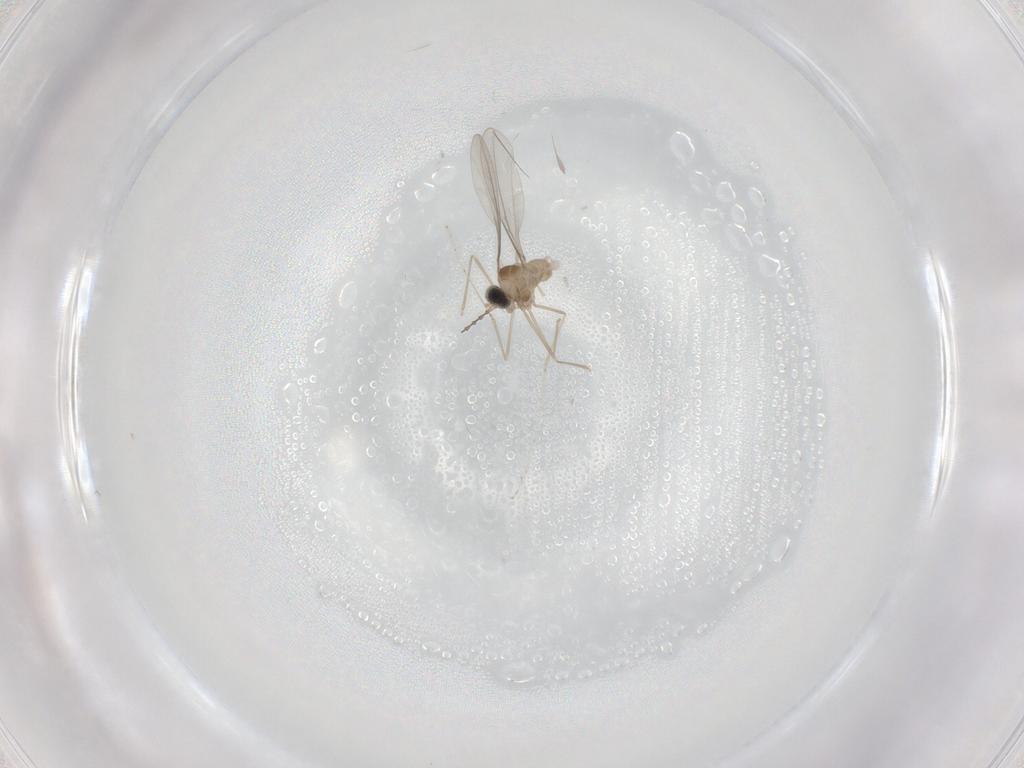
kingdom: Animalia
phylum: Arthropoda
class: Insecta
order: Diptera
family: Cecidomyiidae
